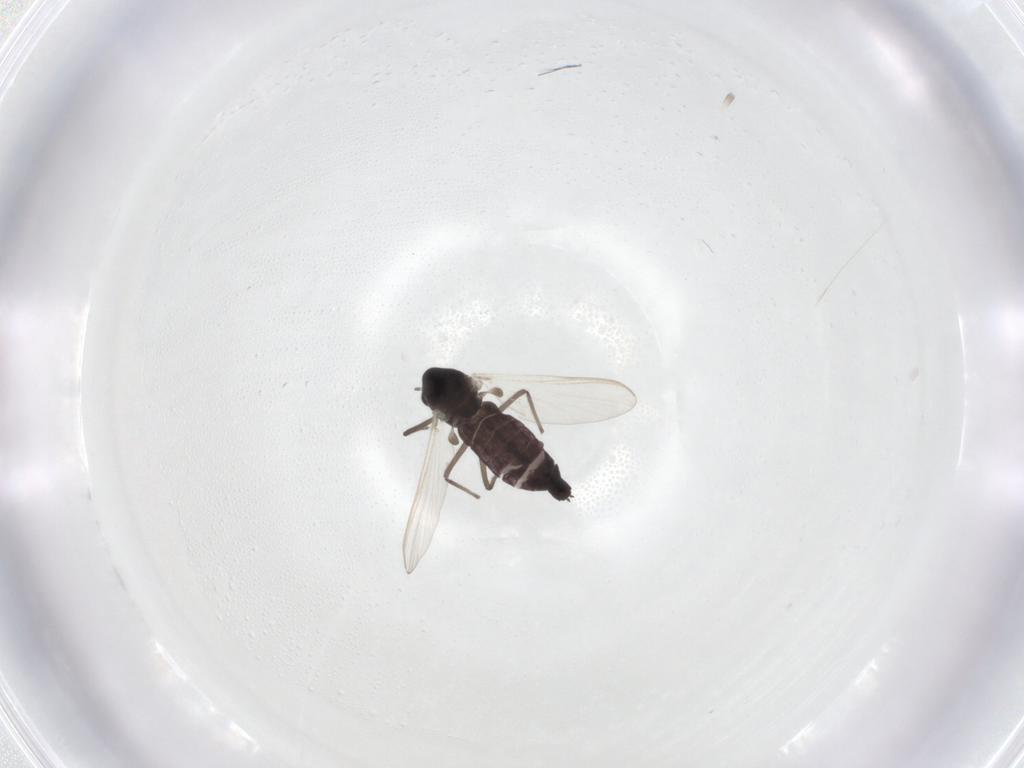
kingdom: Animalia
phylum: Arthropoda
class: Insecta
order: Diptera
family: Chironomidae
